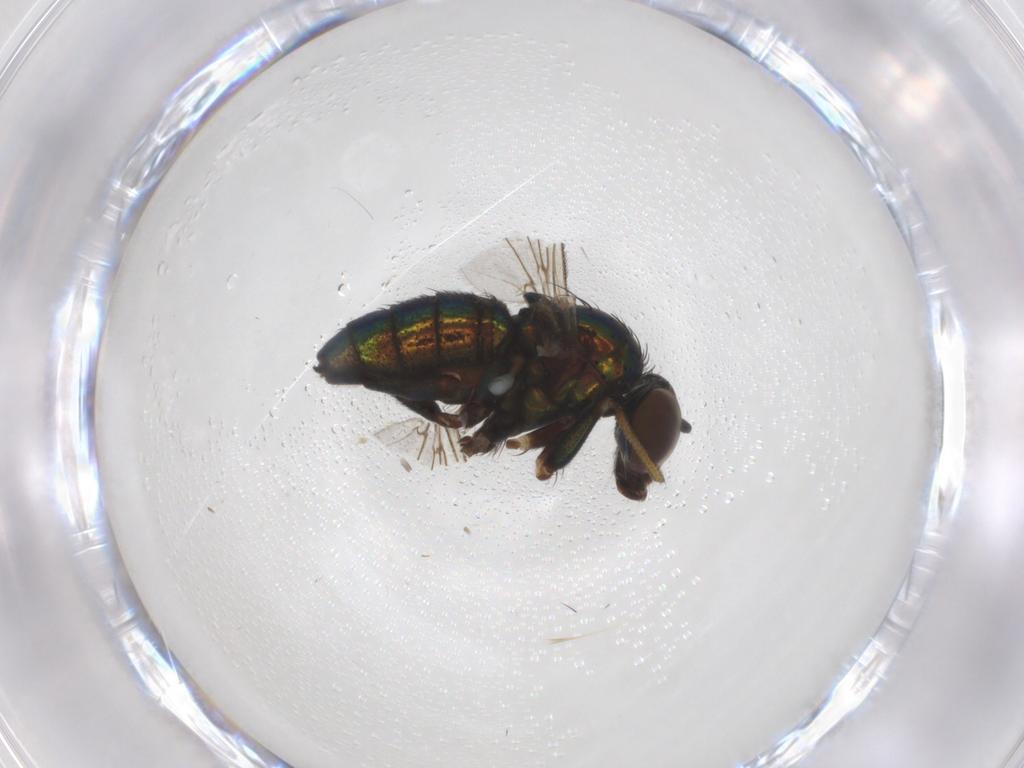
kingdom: Animalia
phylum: Arthropoda
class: Insecta
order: Diptera
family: Dolichopodidae
